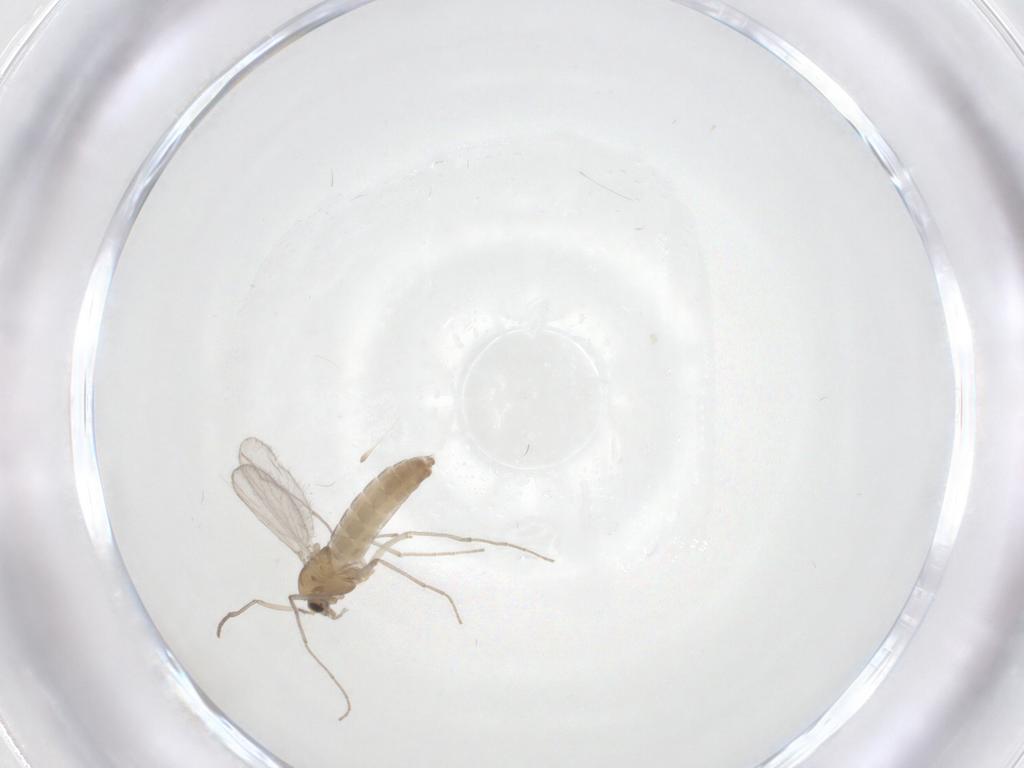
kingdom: Animalia
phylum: Arthropoda
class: Insecta
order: Diptera
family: Chironomidae
